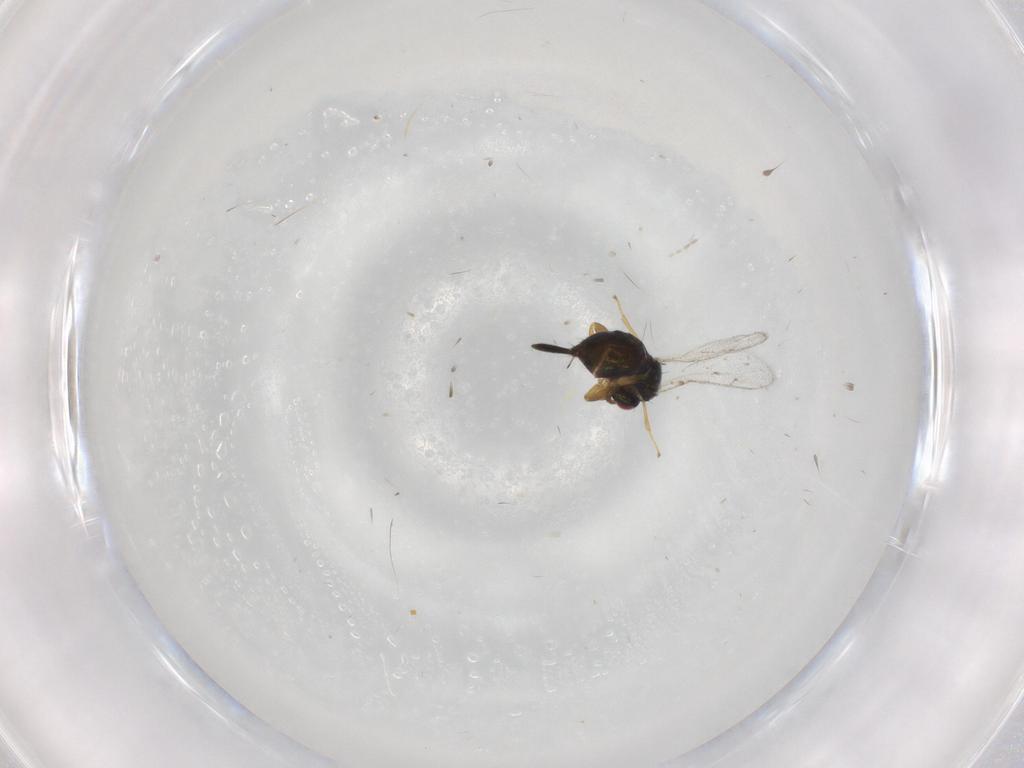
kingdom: Animalia
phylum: Arthropoda
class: Insecta
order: Hymenoptera
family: Torymidae
